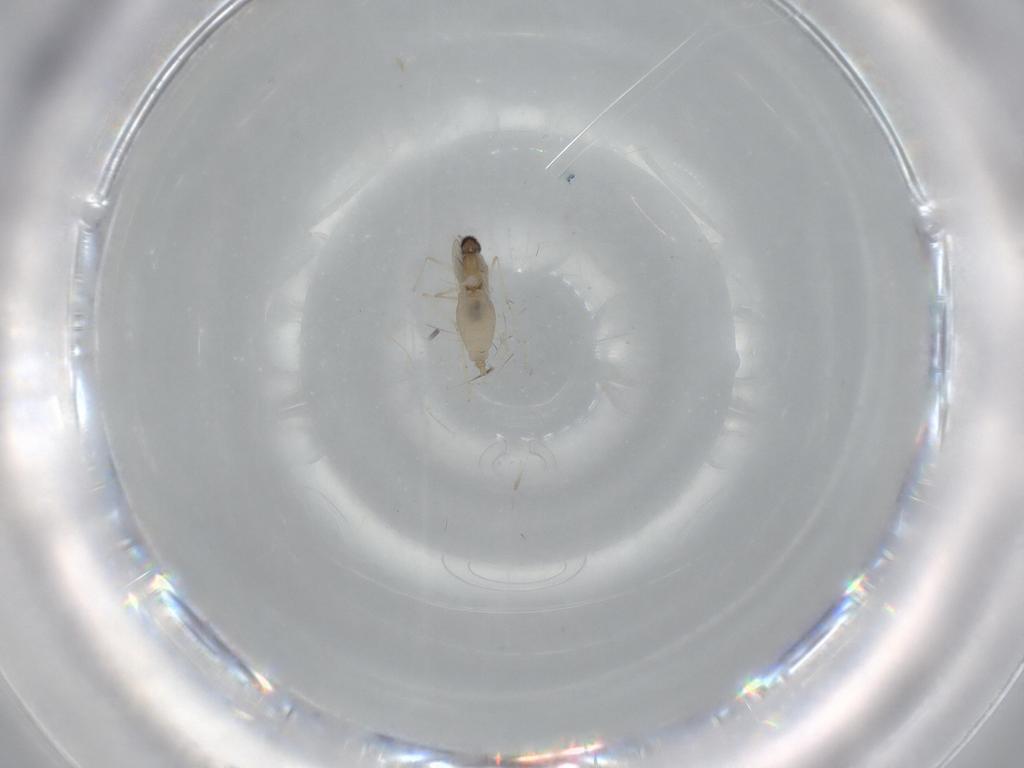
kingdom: Animalia
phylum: Arthropoda
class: Insecta
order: Diptera
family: Cecidomyiidae
